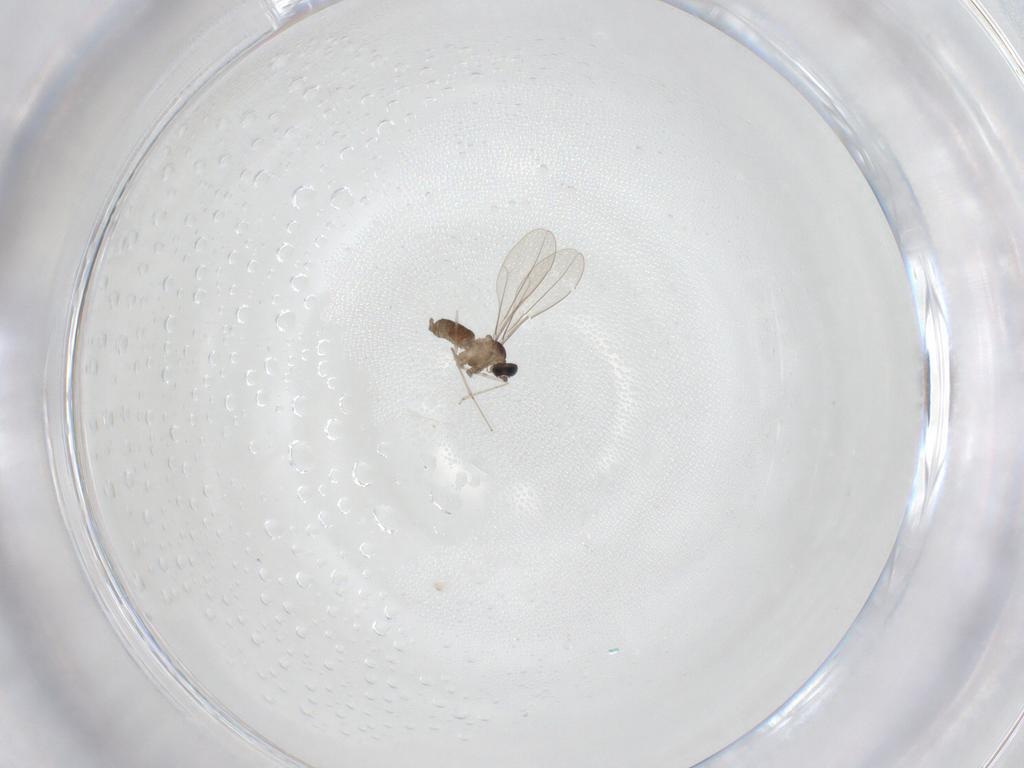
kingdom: Animalia
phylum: Arthropoda
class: Insecta
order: Diptera
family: Cecidomyiidae
